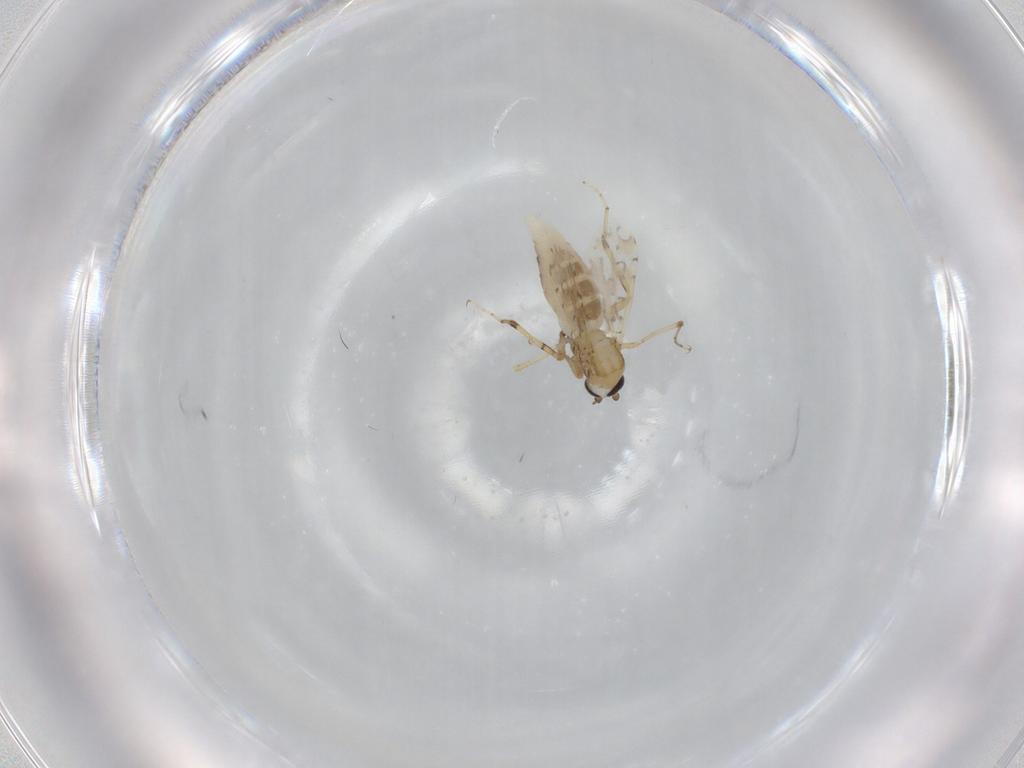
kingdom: Animalia
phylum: Arthropoda
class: Insecta
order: Diptera
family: Ceratopogonidae
